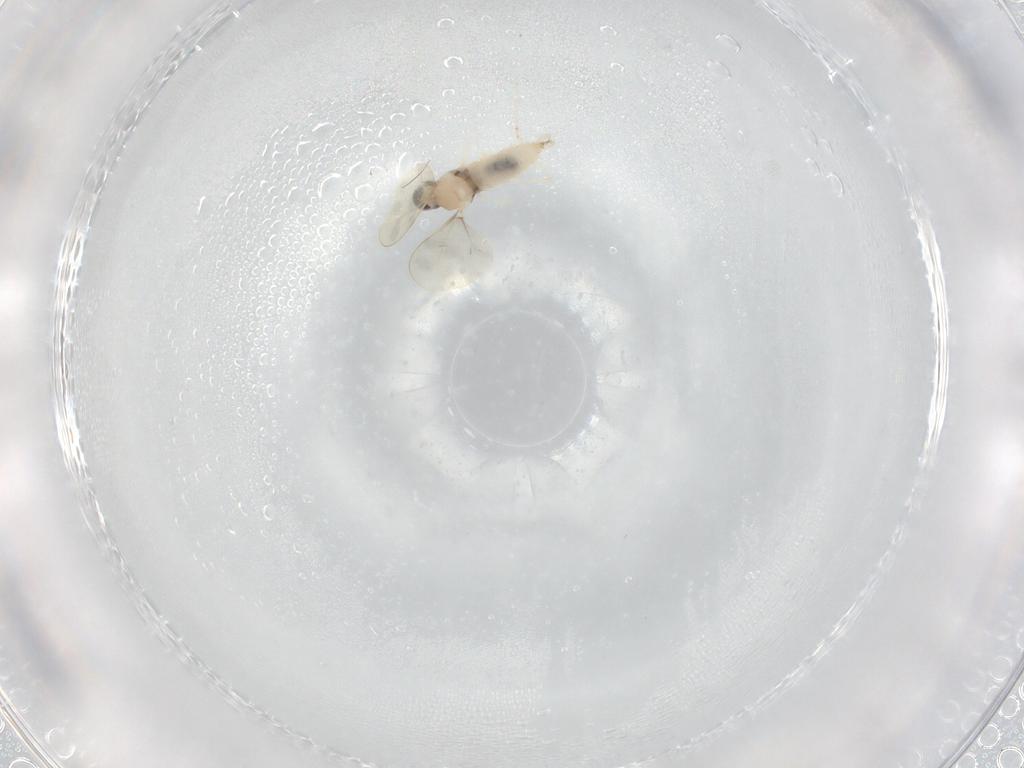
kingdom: Animalia
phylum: Arthropoda
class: Insecta
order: Diptera
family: Cecidomyiidae
